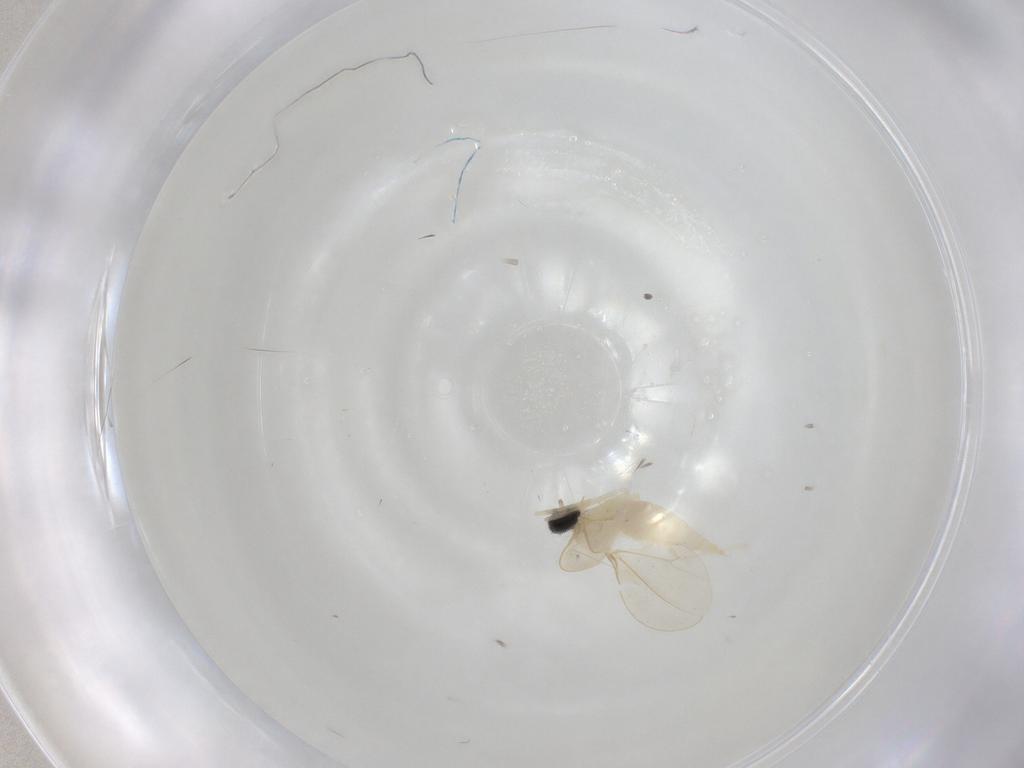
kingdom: Animalia
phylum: Arthropoda
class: Insecta
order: Diptera
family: Cecidomyiidae
